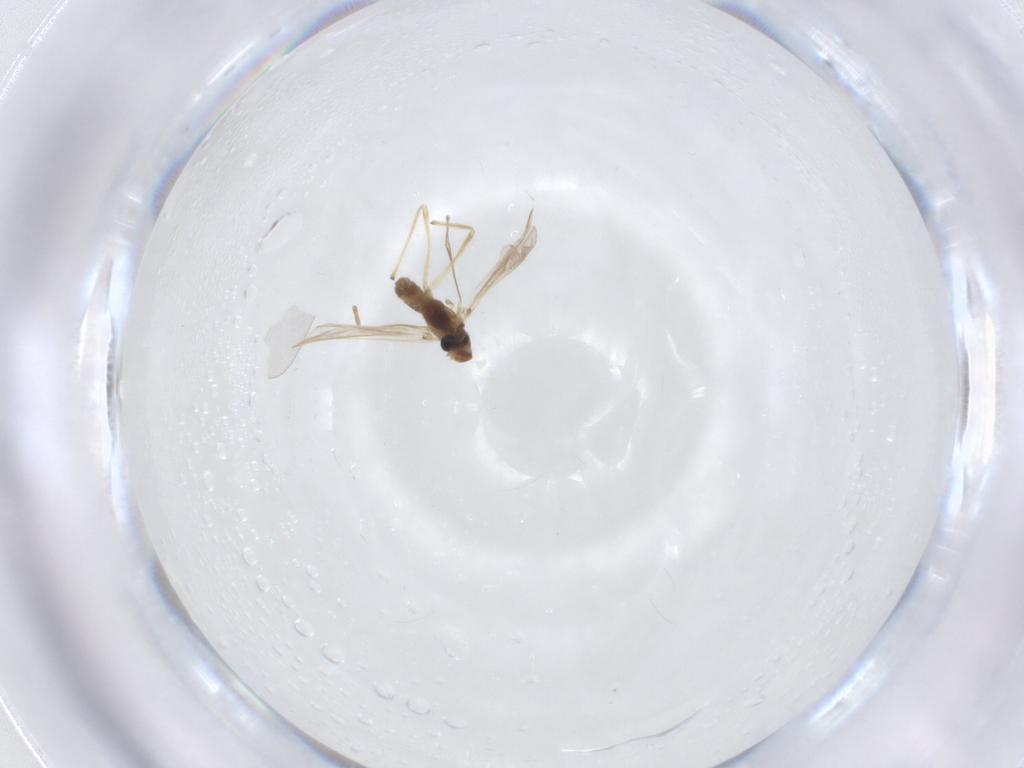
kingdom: Animalia
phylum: Arthropoda
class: Insecta
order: Diptera
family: Chironomidae
